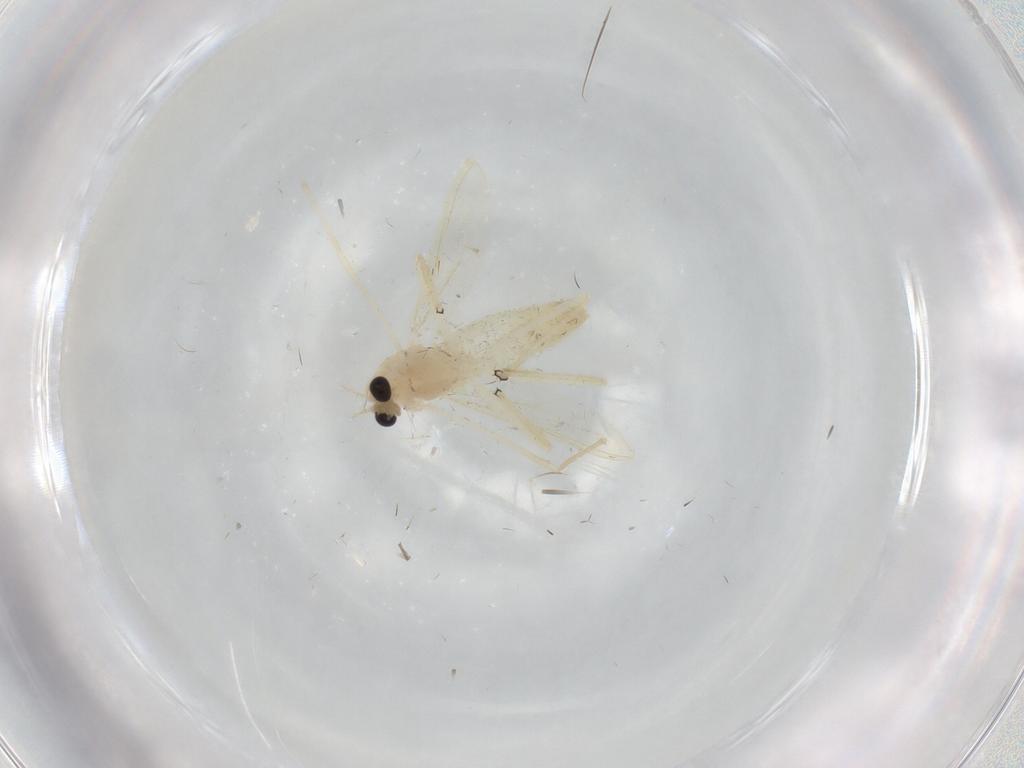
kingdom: Animalia
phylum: Arthropoda
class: Insecta
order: Diptera
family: Chironomidae
